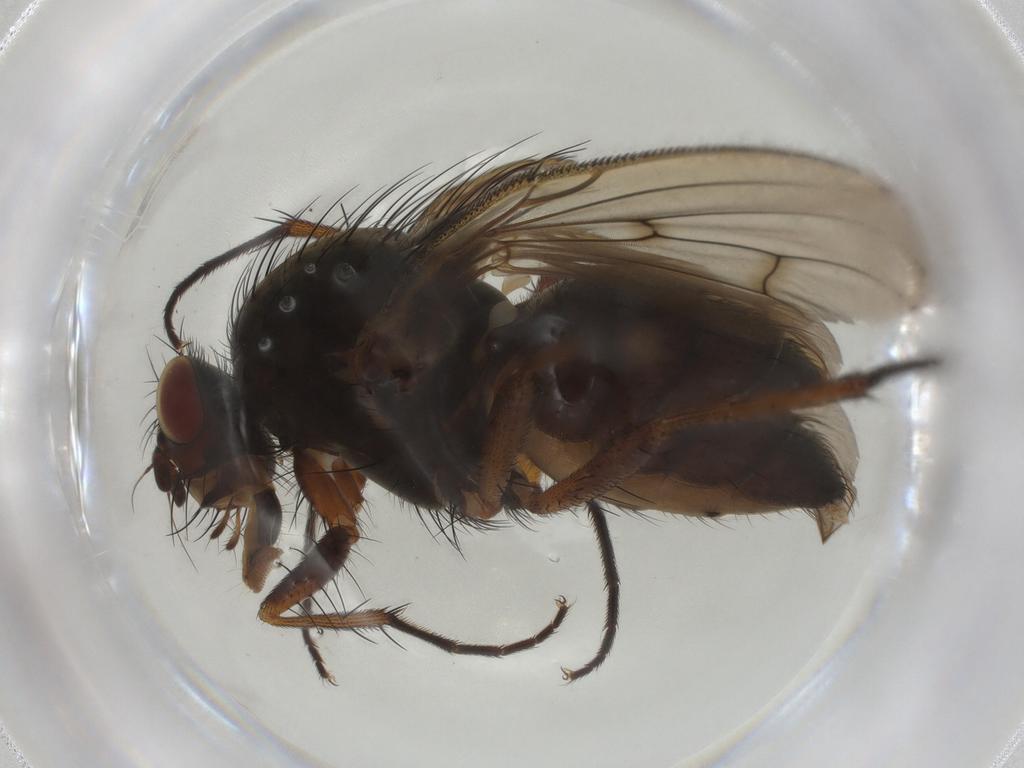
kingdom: Animalia
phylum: Arthropoda
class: Insecta
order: Diptera
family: Anthomyiidae
